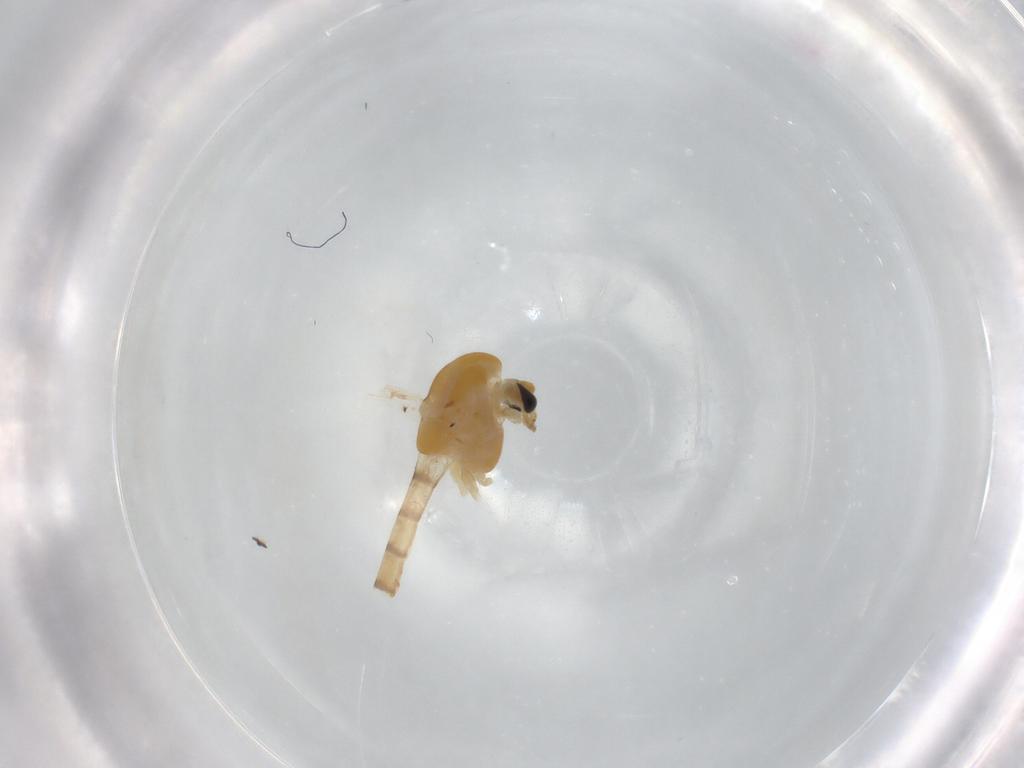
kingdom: Animalia
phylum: Arthropoda
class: Insecta
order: Diptera
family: Chironomidae
